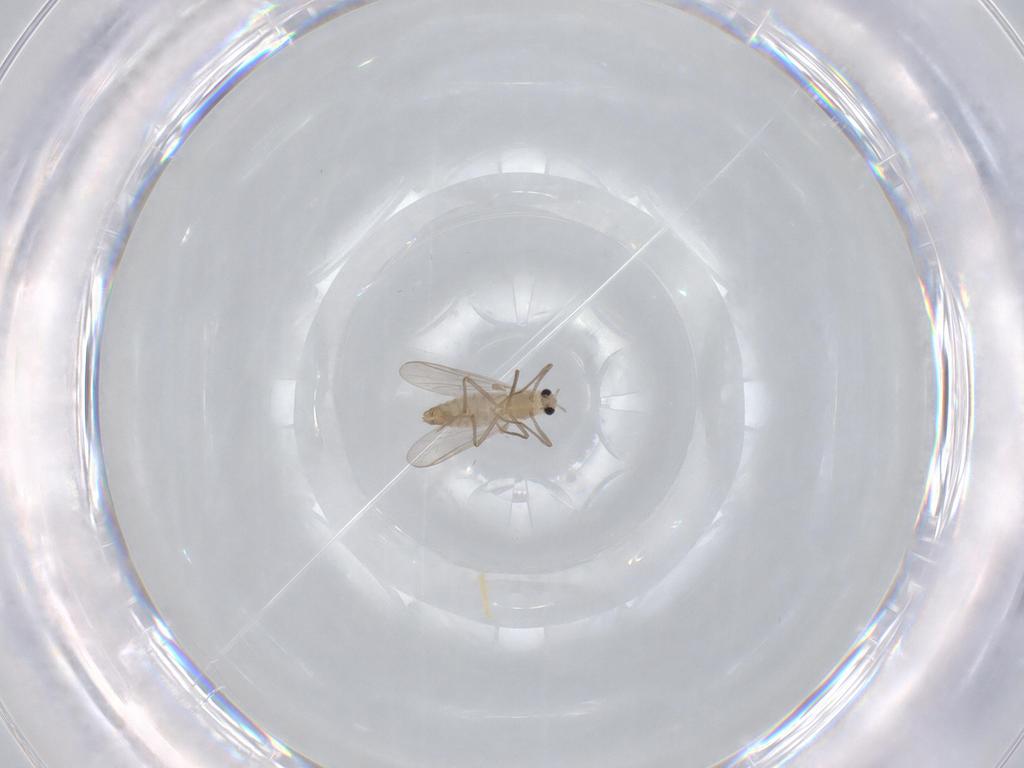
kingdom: Animalia
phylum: Arthropoda
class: Insecta
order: Diptera
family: Chironomidae
